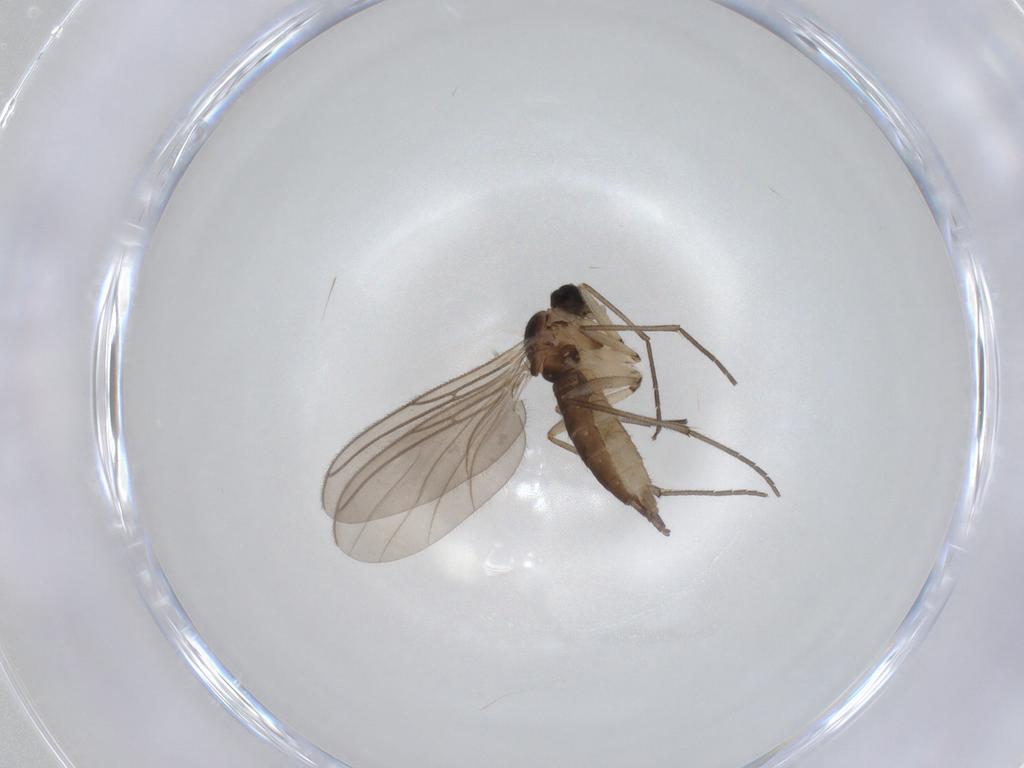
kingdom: Animalia
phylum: Arthropoda
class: Insecta
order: Diptera
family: Sciaridae
